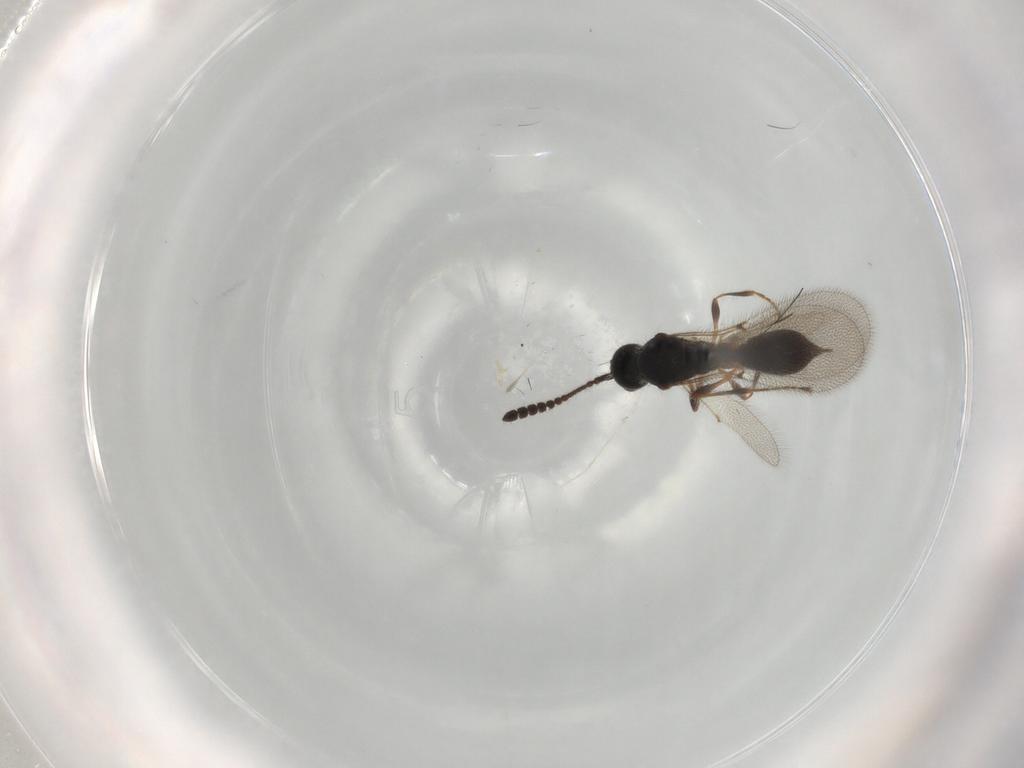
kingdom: Animalia
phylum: Arthropoda
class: Insecta
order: Hymenoptera
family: Diapriidae
